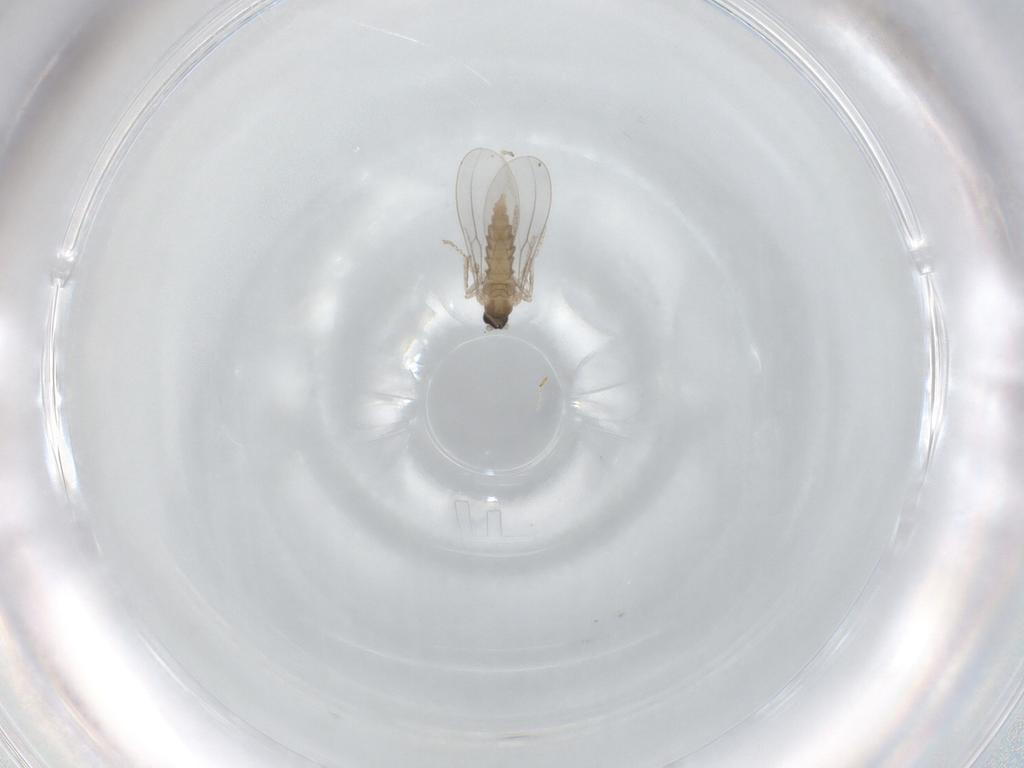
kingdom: Animalia
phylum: Arthropoda
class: Insecta
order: Diptera
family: Cecidomyiidae
